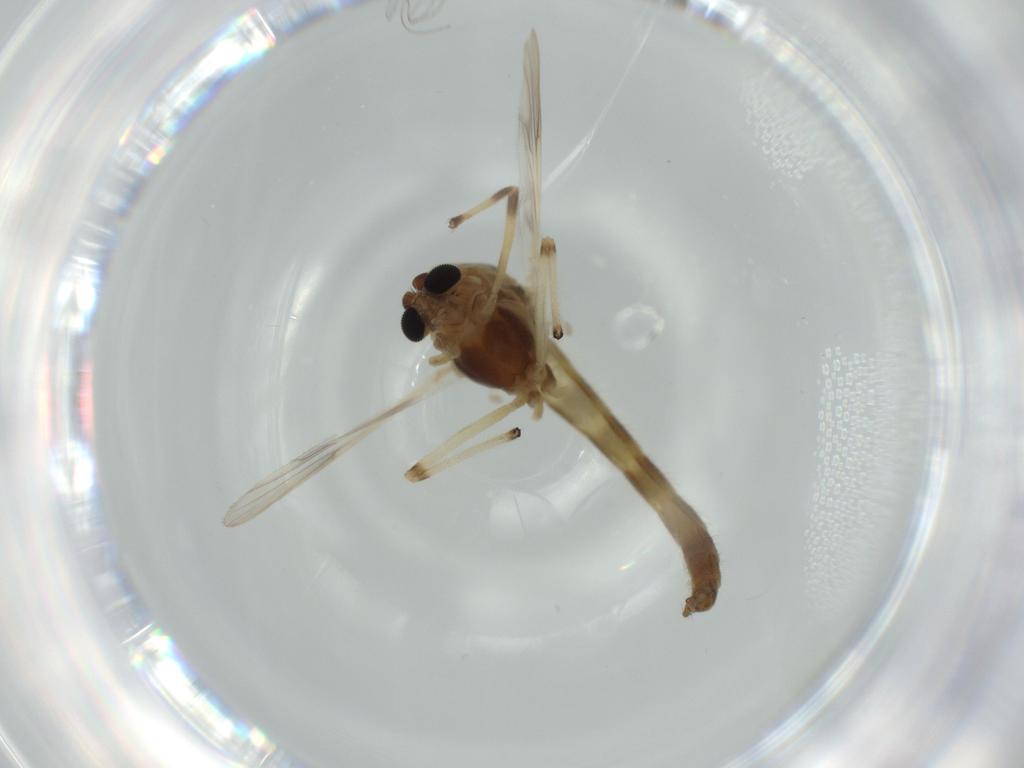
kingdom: Animalia
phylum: Arthropoda
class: Insecta
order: Diptera
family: Chironomidae
